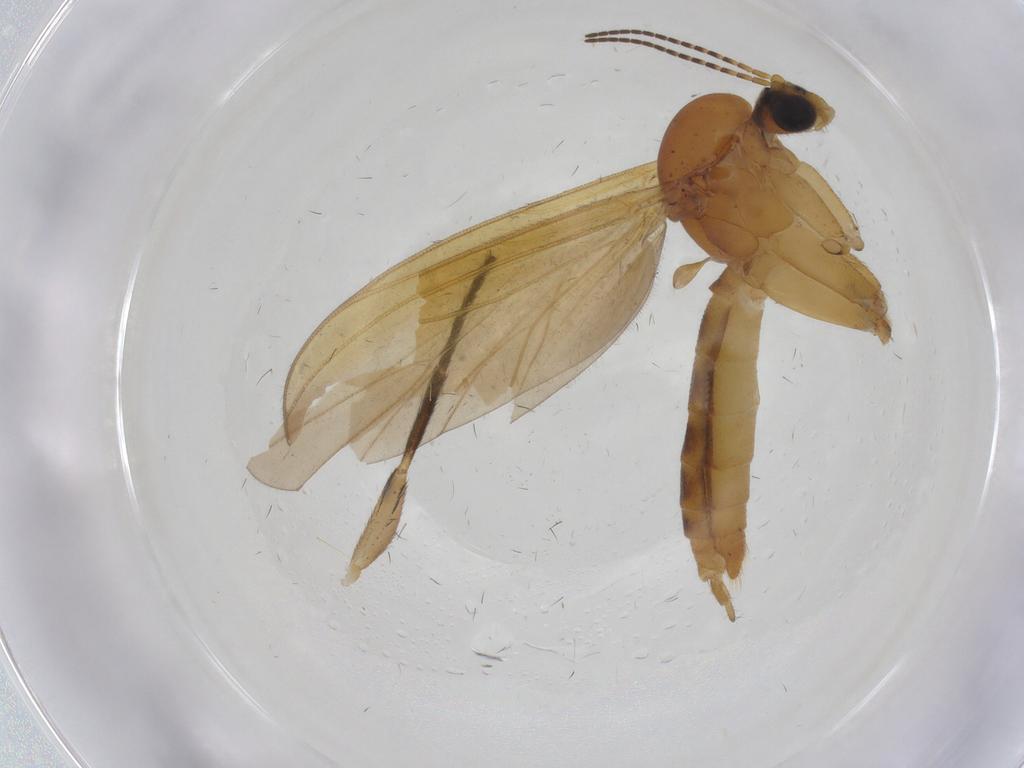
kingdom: Animalia
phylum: Arthropoda
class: Insecta
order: Diptera
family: Mycetophilidae
